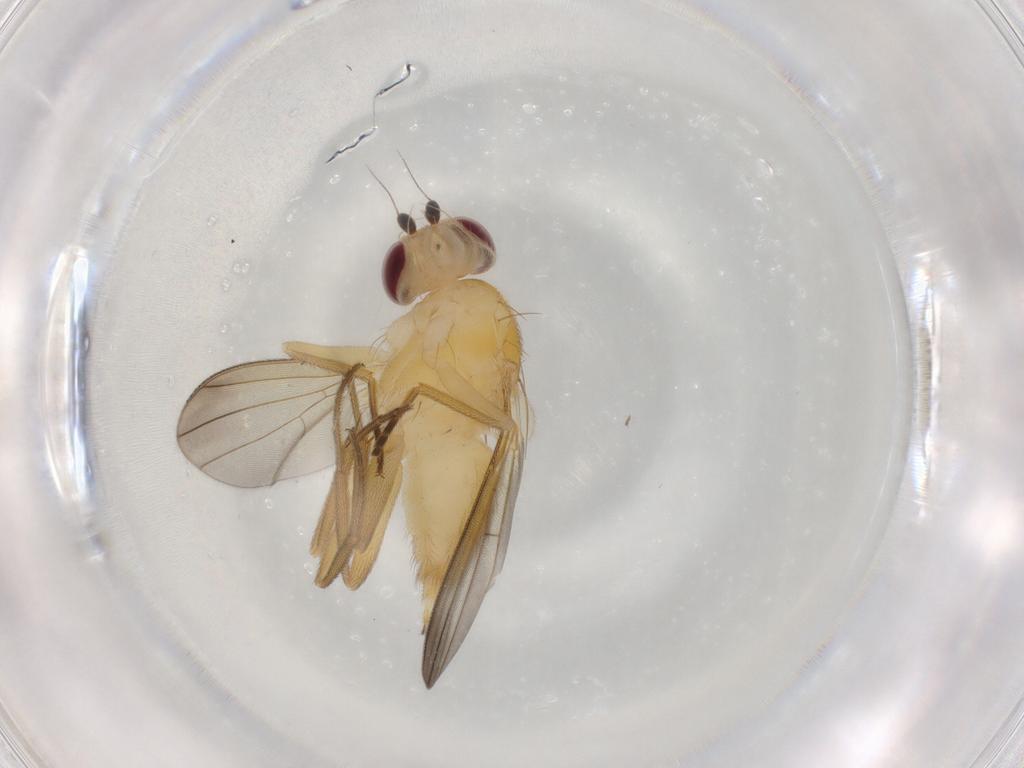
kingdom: Animalia
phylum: Arthropoda
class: Insecta
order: Diptera
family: Clusiidae
